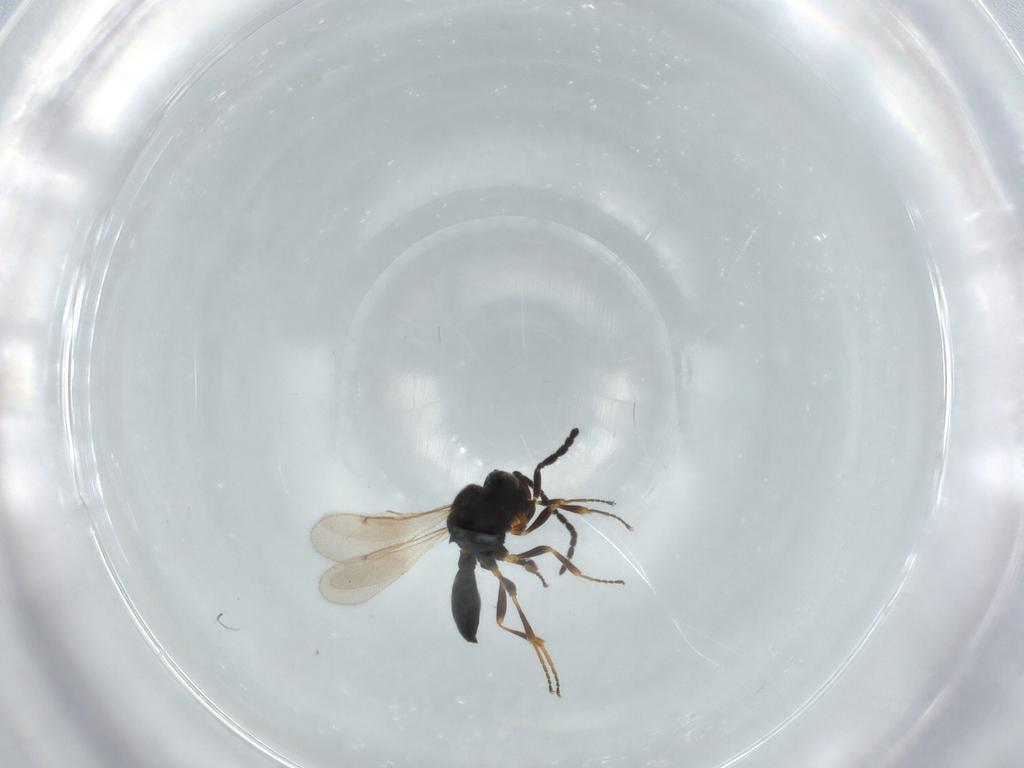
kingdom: Animalia
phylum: Arthropoda
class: Insecta
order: Hymenoptera
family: Scelionidae
